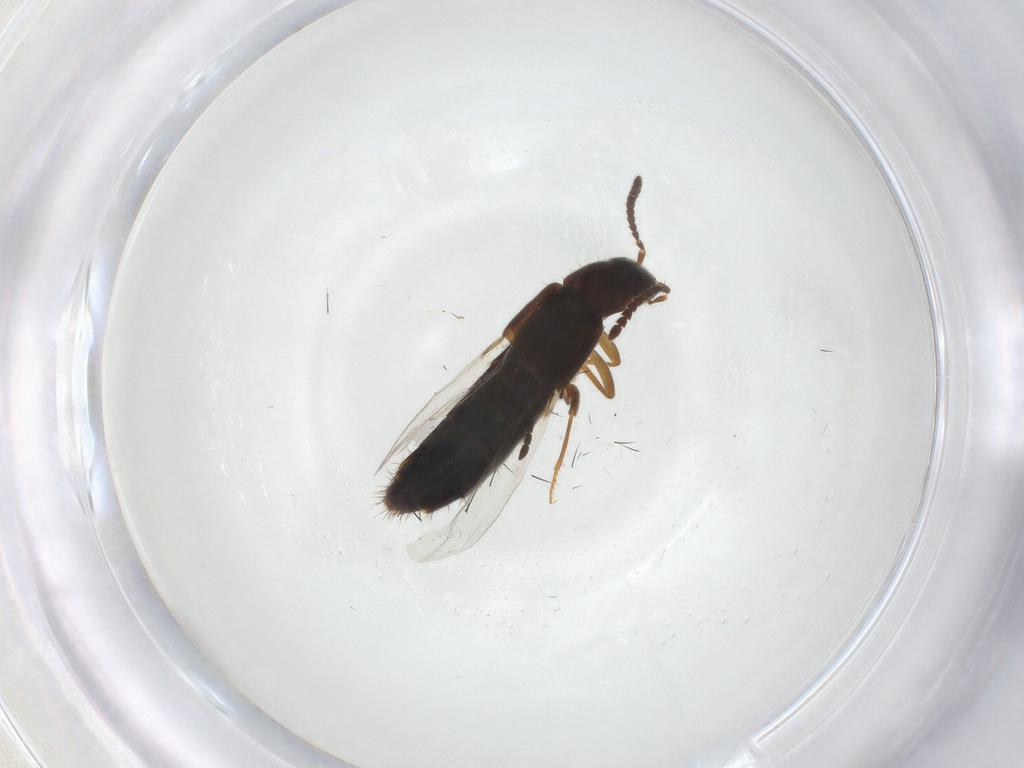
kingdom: Animalia
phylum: Arthropoda
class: Insecta
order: Coleoptera
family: Staphylinidae
